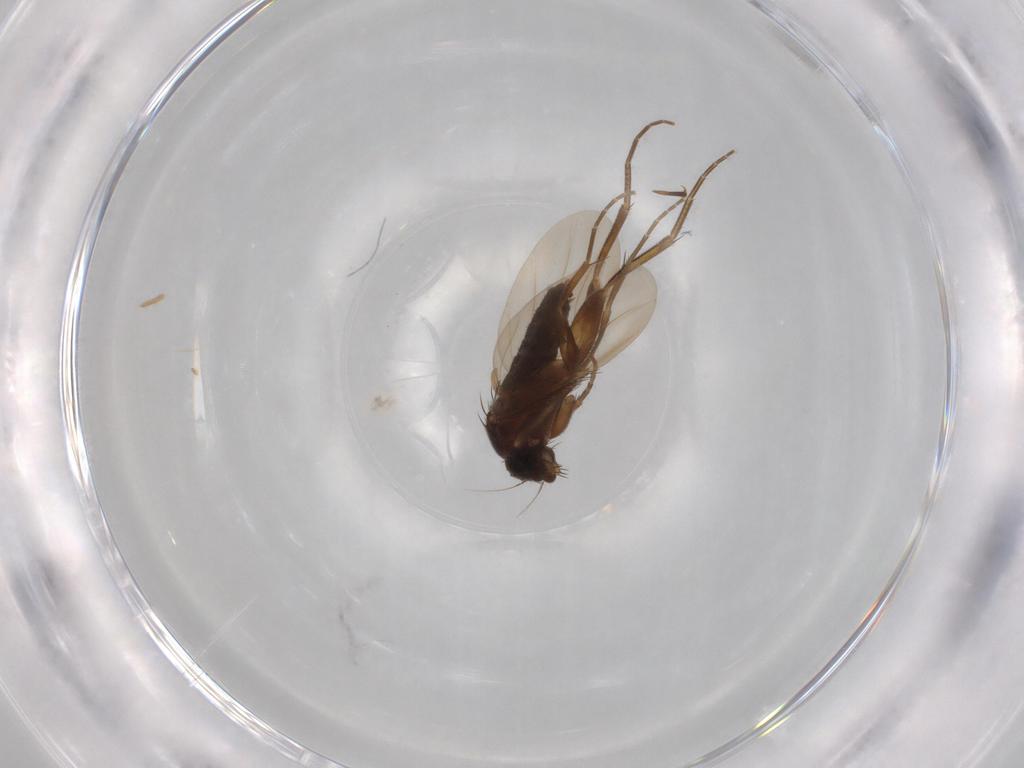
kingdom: Animalia
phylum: Arthropoda
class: Insecta
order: Diptera
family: Phoridae
